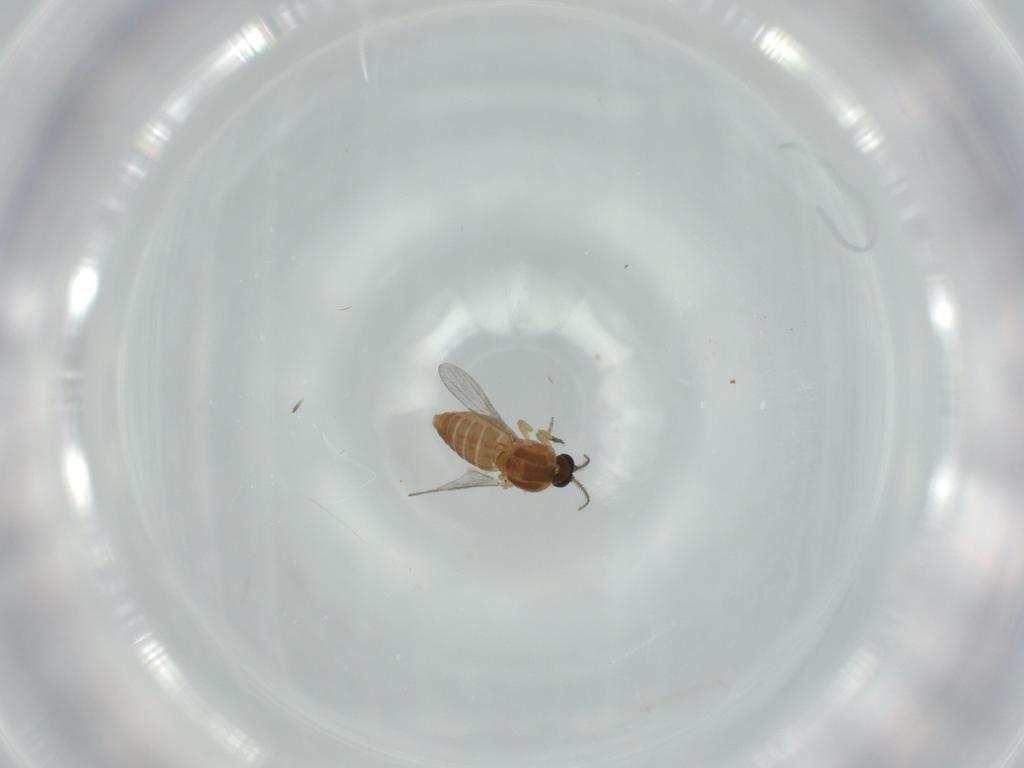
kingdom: Animalia
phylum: Arthropoda
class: Insecta
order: Diptera
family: Ceratopogonidae
